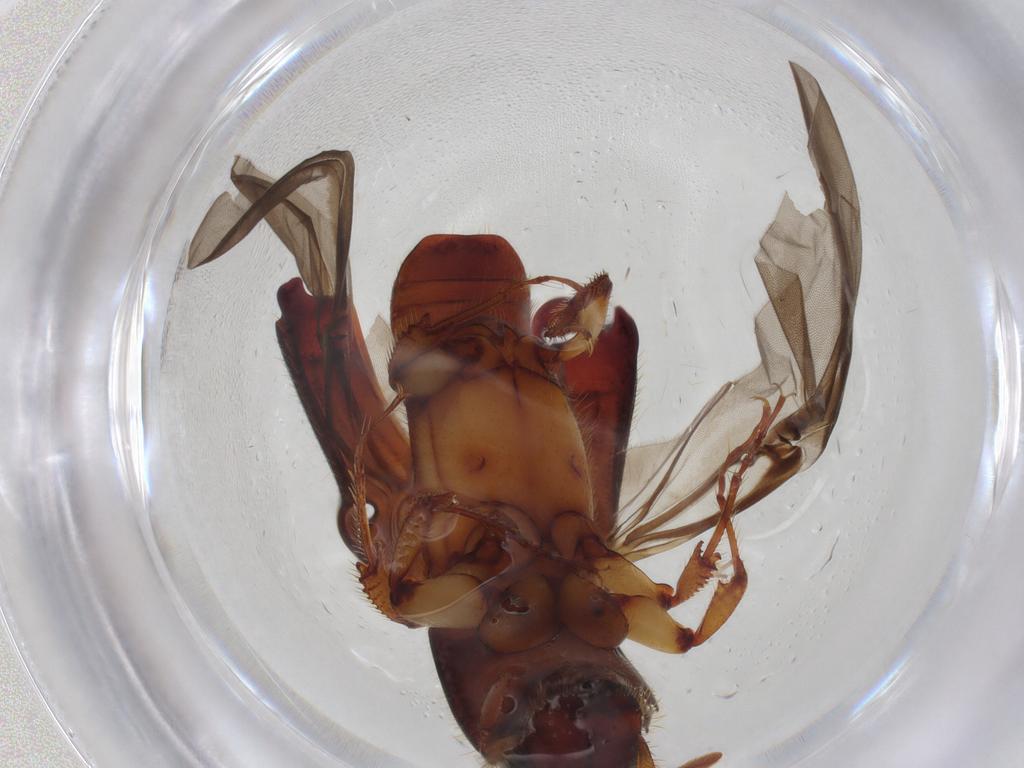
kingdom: Animalia
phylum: Arthropoda
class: Insecta
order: Coleoptera
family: Curculionidae
